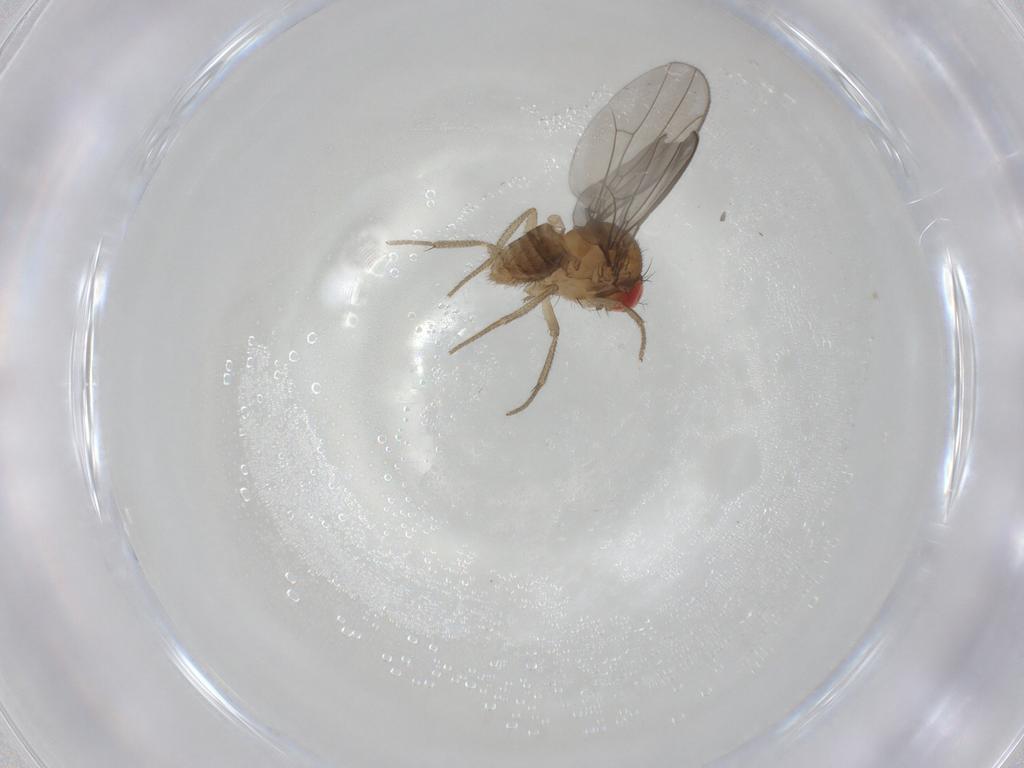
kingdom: Animalia
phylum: Arthropoda
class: Insecta
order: Diptera
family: Drosophilidae
